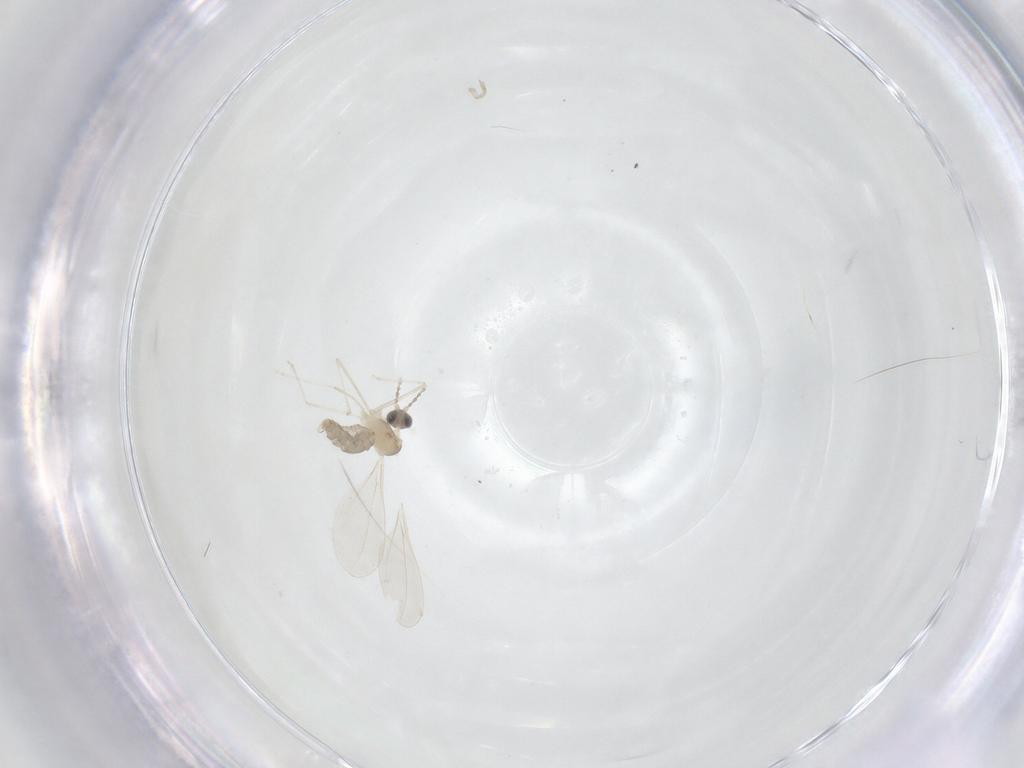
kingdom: Animalia
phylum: Arthropoda
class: Insecta
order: Diptera
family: Cecidomyiidae
